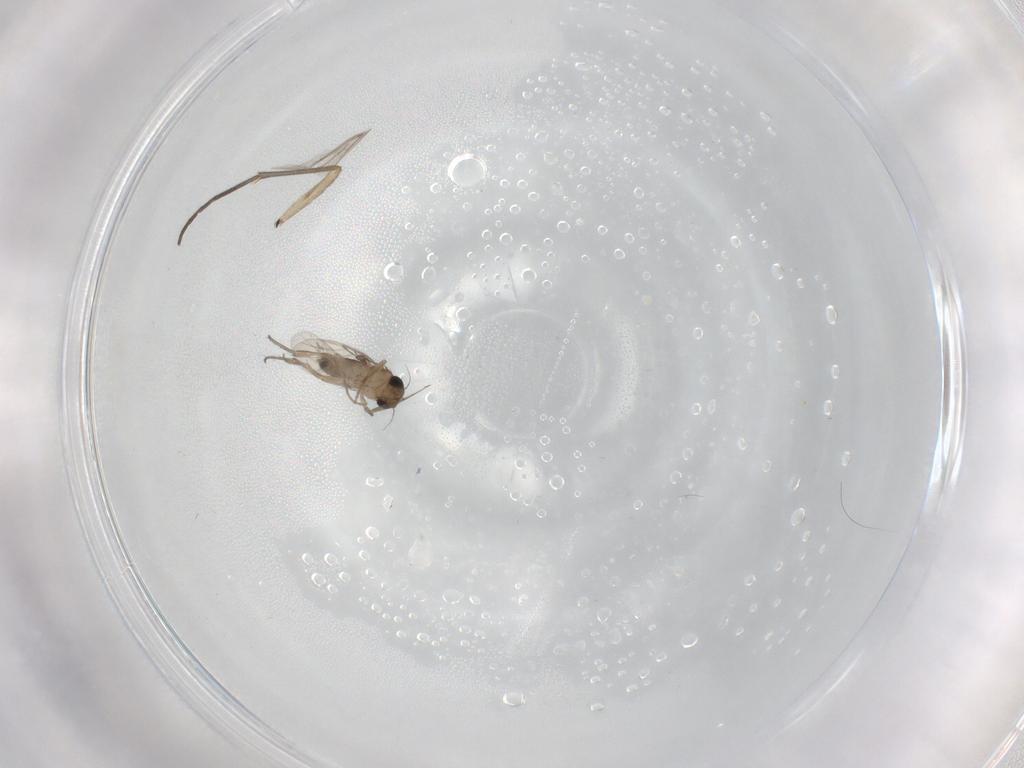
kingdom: Animalia
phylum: Arthropoda
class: Insecta
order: Diptera
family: Sciaridae
